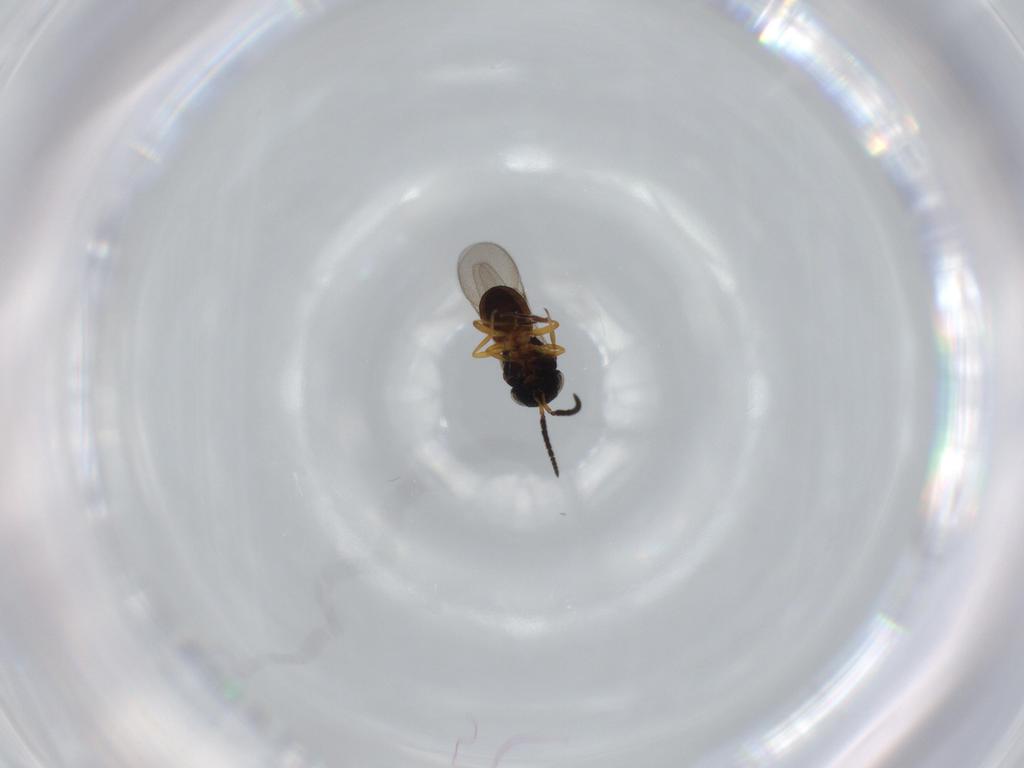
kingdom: Animalia
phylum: Arthropoda
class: Insecta
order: Coleoptera
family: Curculionidae
